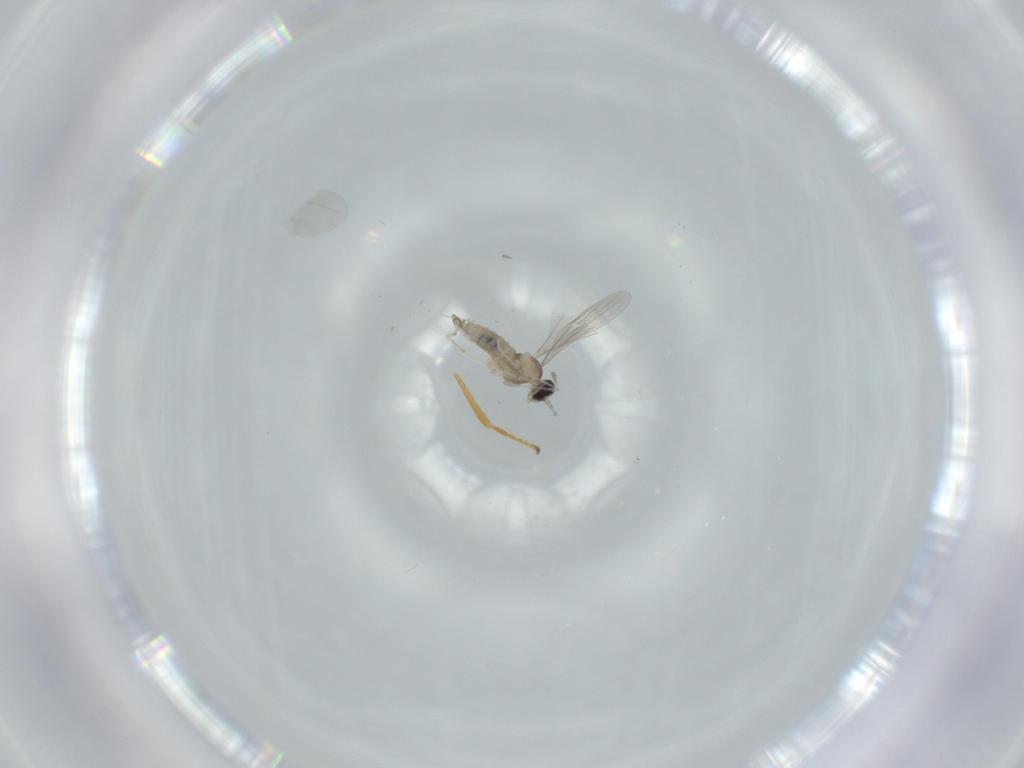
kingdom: Animalia
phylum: Arthropoda
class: Insecta
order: Diptera
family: Cecidomyiidae
